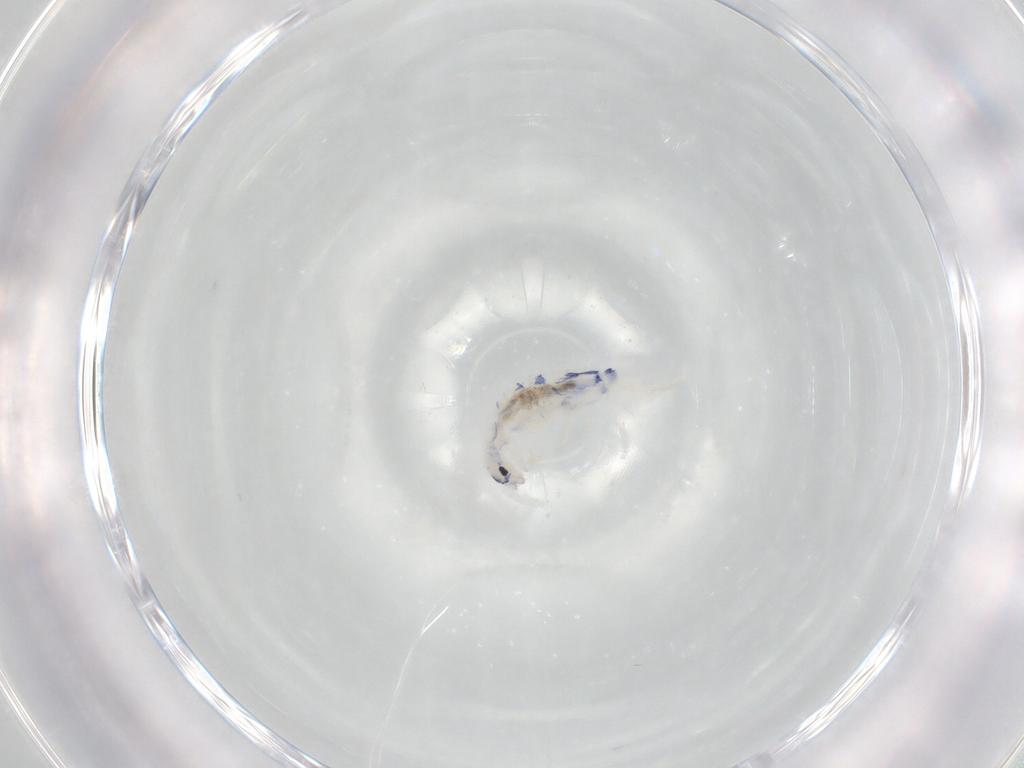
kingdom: Animalia
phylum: Arthropoda
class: Collembola
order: Entomobryomorpha
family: Entomobryidae
